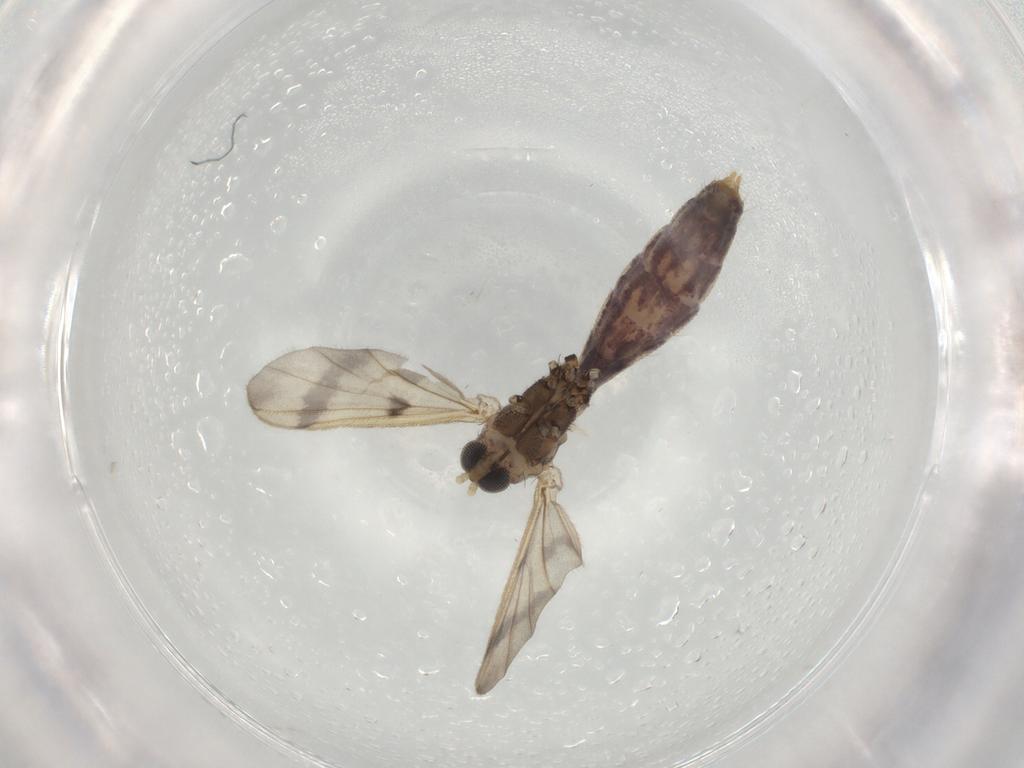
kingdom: Animalia
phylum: Arthropoda
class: Insecta
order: Diptera
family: Mycetophilidae
